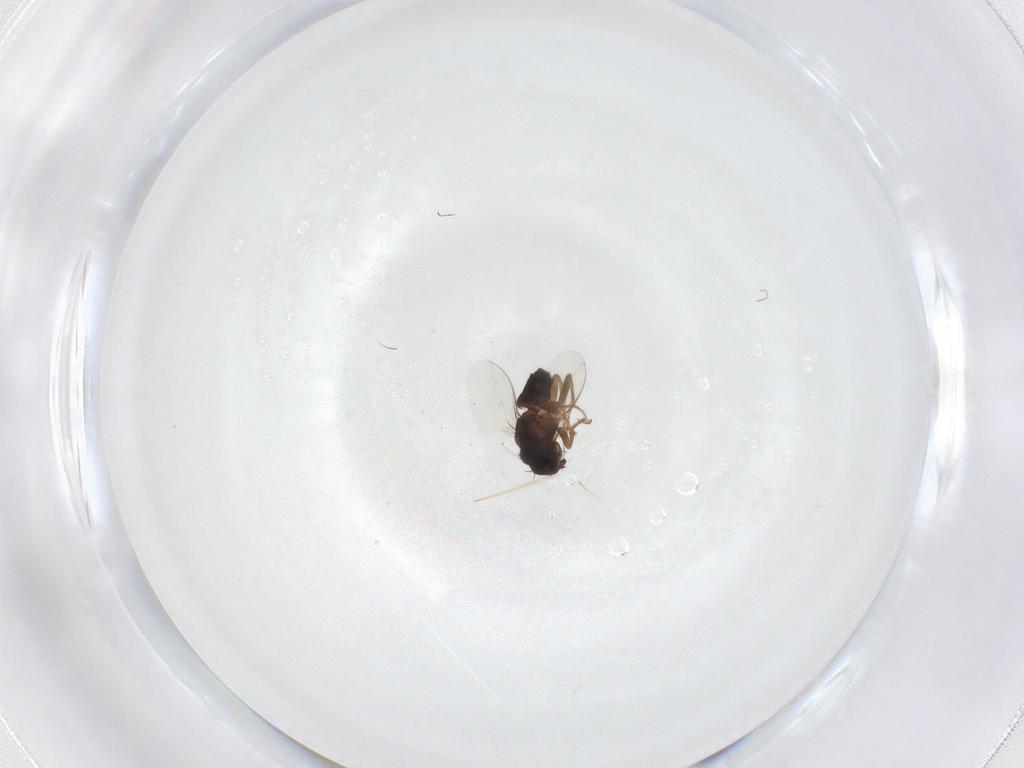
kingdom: Animalia
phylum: Arthropoda
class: Insecta
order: Diptera
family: Sphaeroceridae
